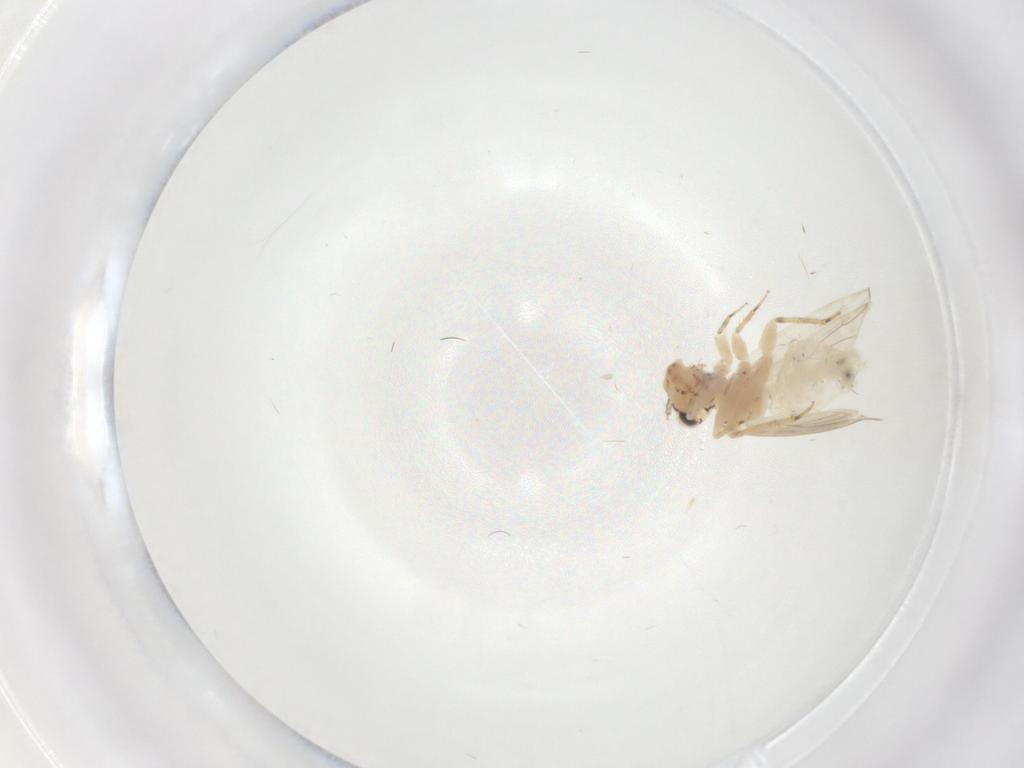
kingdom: Animalia
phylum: Arthropoda
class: Insecta
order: Psocodea
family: Lepidopsocidae
